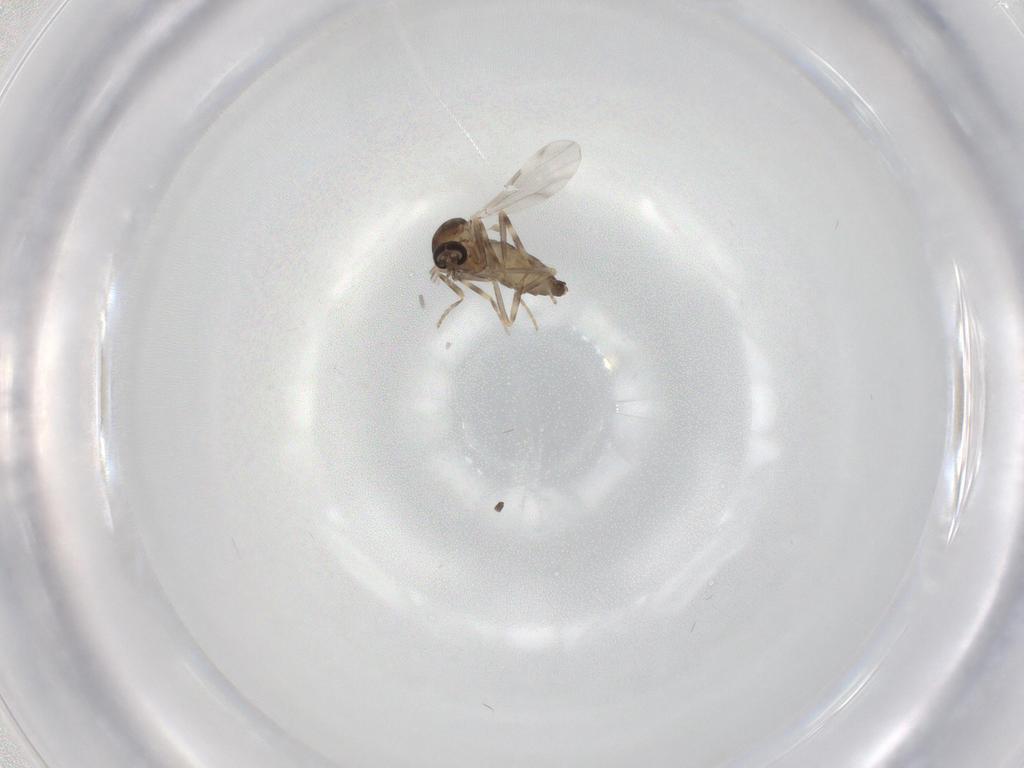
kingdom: Animalia
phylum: Arthropoda
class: Insecta
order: Diptera
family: Ceratopogonidae
